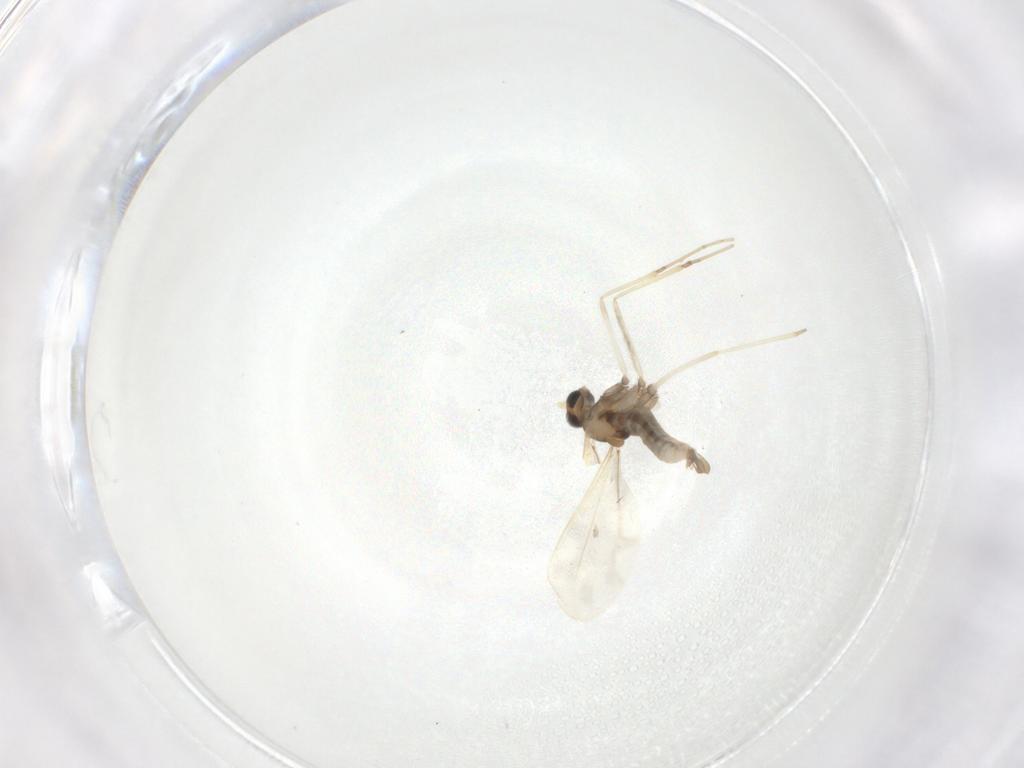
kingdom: Animalia
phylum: Arthropoda
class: Insecta
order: Diptera
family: Cecidomyiidae
